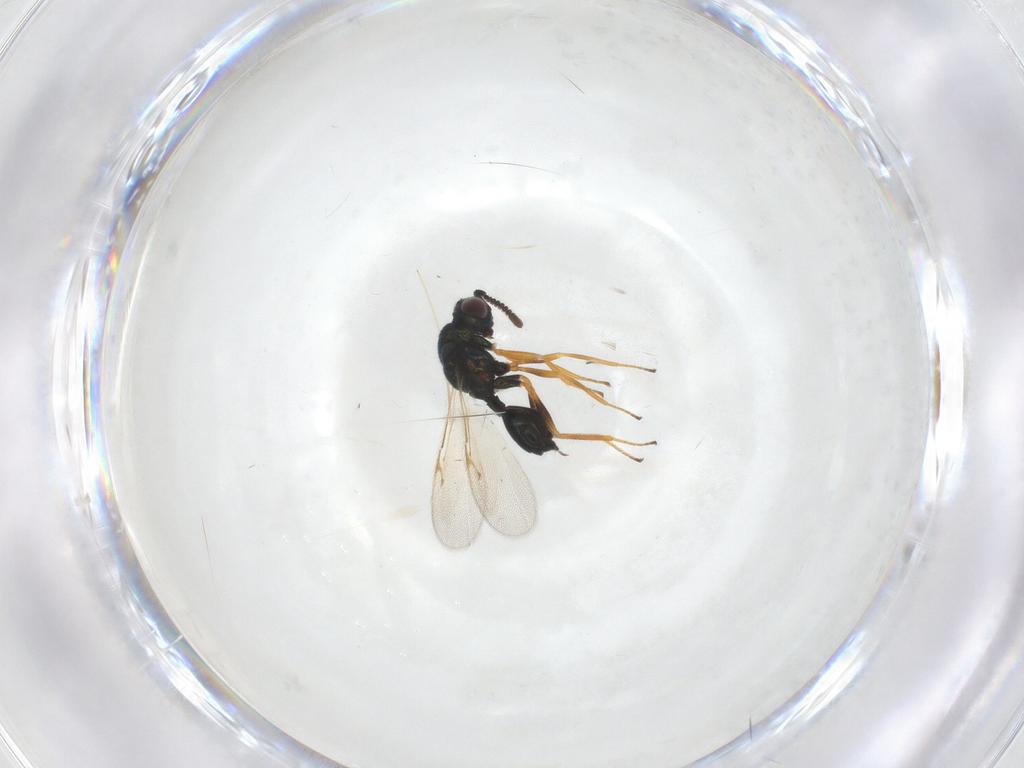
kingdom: Animalia
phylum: Arthropoda
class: Insecta
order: Hymenoptera
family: Chalcidoidea_incertae_sedis
